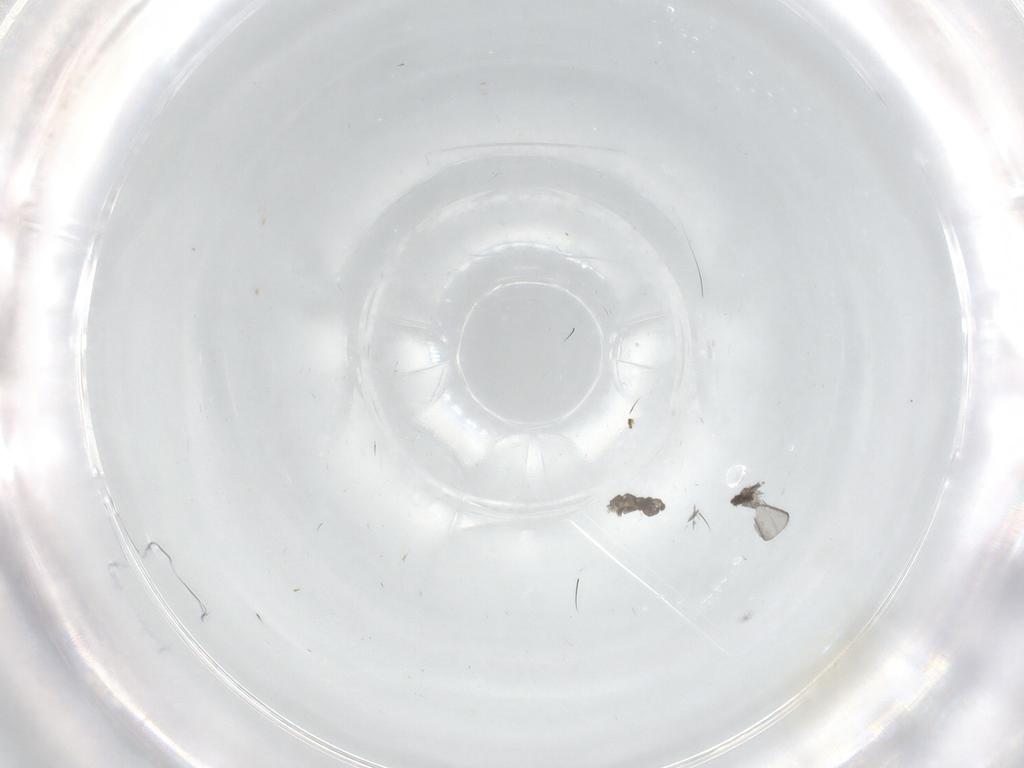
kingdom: Animalia
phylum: Arthropoda
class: Insecta
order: Diptera
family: Cecidomyiidae
